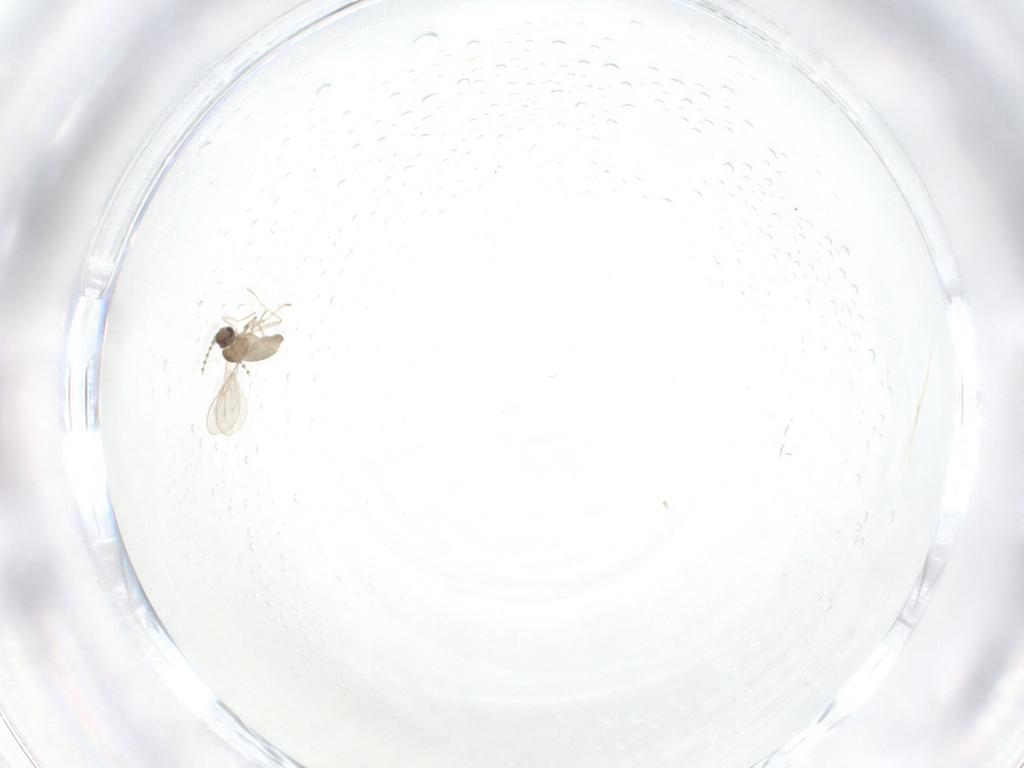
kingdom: Animalia
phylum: Arthropoda
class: Insecta
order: Diptera
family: Cecidomyiidae
